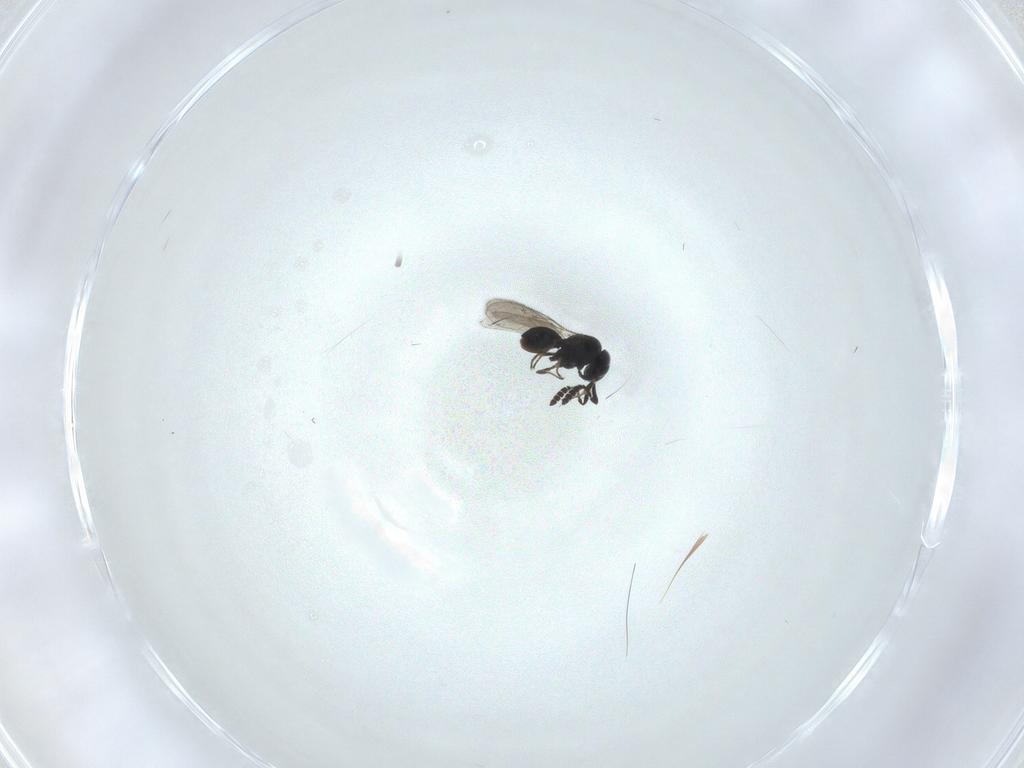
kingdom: Animalia
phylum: Arthropoda
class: Insecta
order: Hymenoptera
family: Scelionidae
